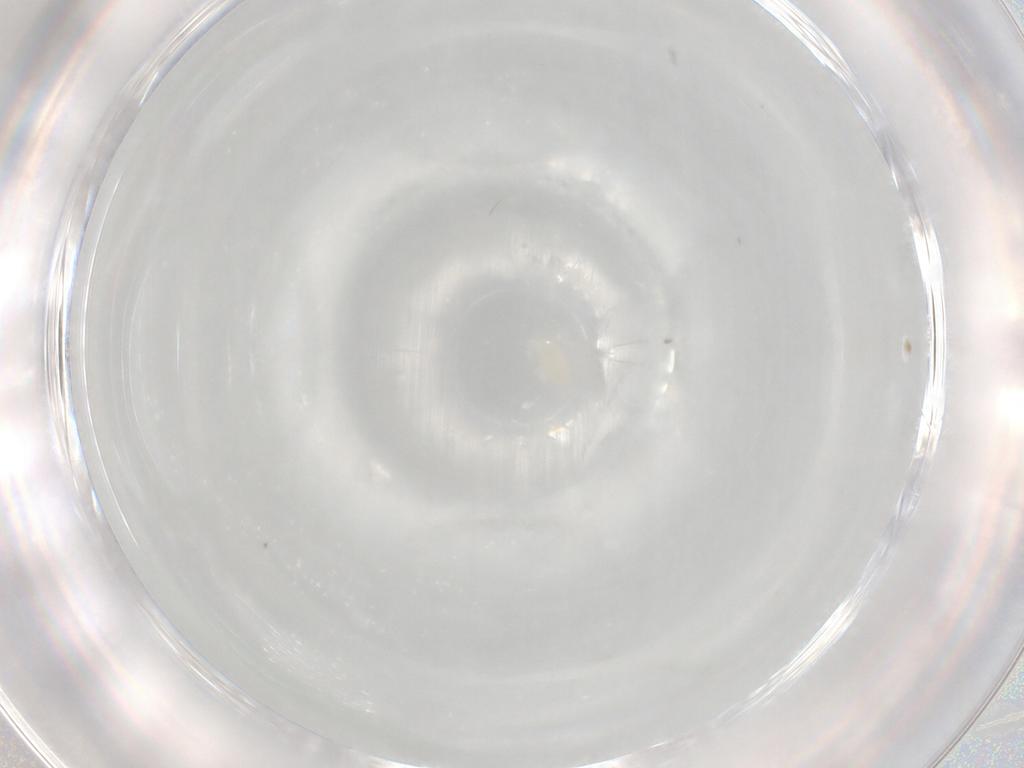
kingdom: Animalia
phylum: Arthropoda
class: Arachnida
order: Trombidiformes
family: Eupodidae
